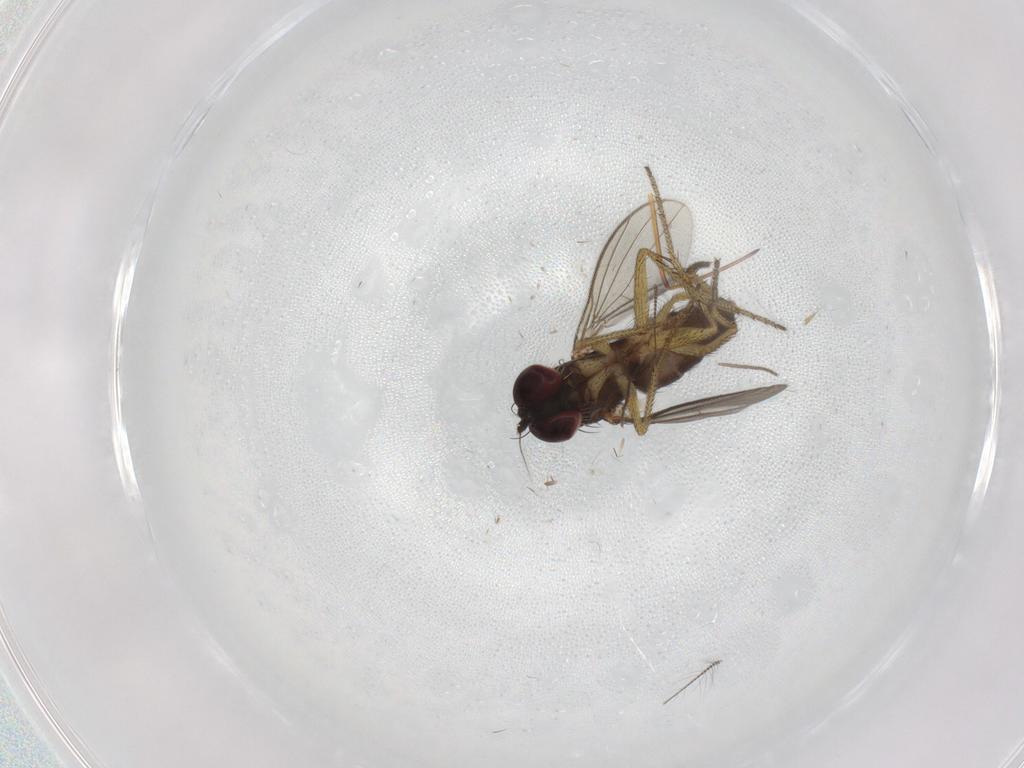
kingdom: Animalia
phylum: Arthropoda
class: Insecta
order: Diptera
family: Chironomidae
